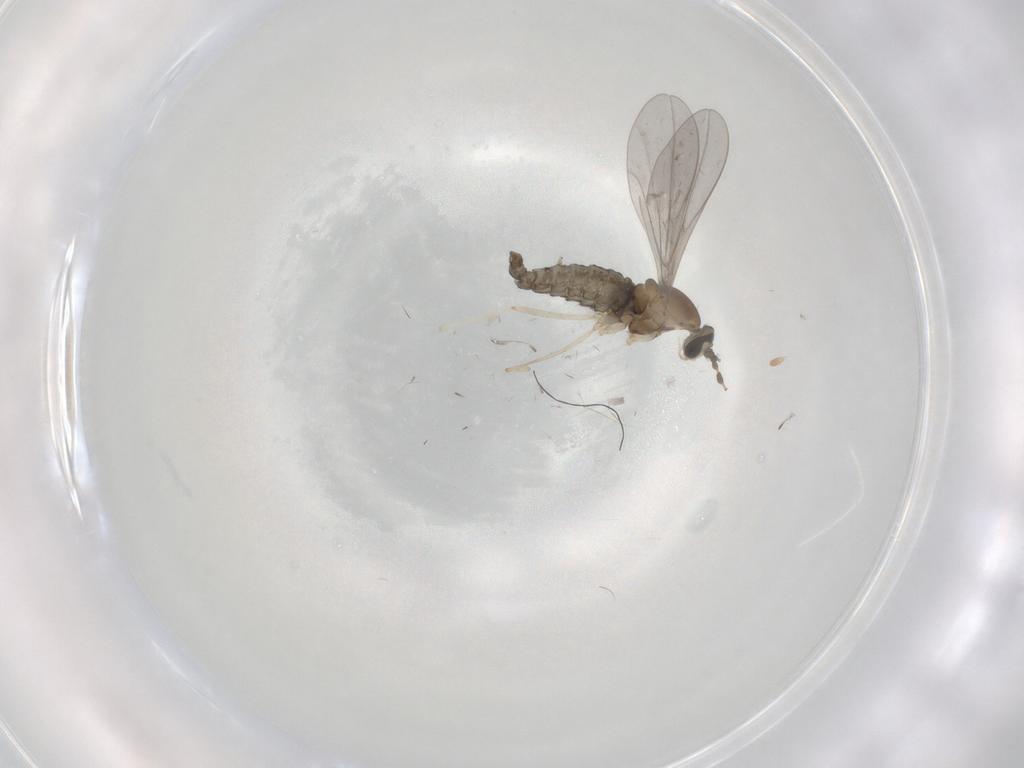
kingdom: Animalia
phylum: Arthropoda
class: Insecta
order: Diptera
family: Cecidomyiidae
